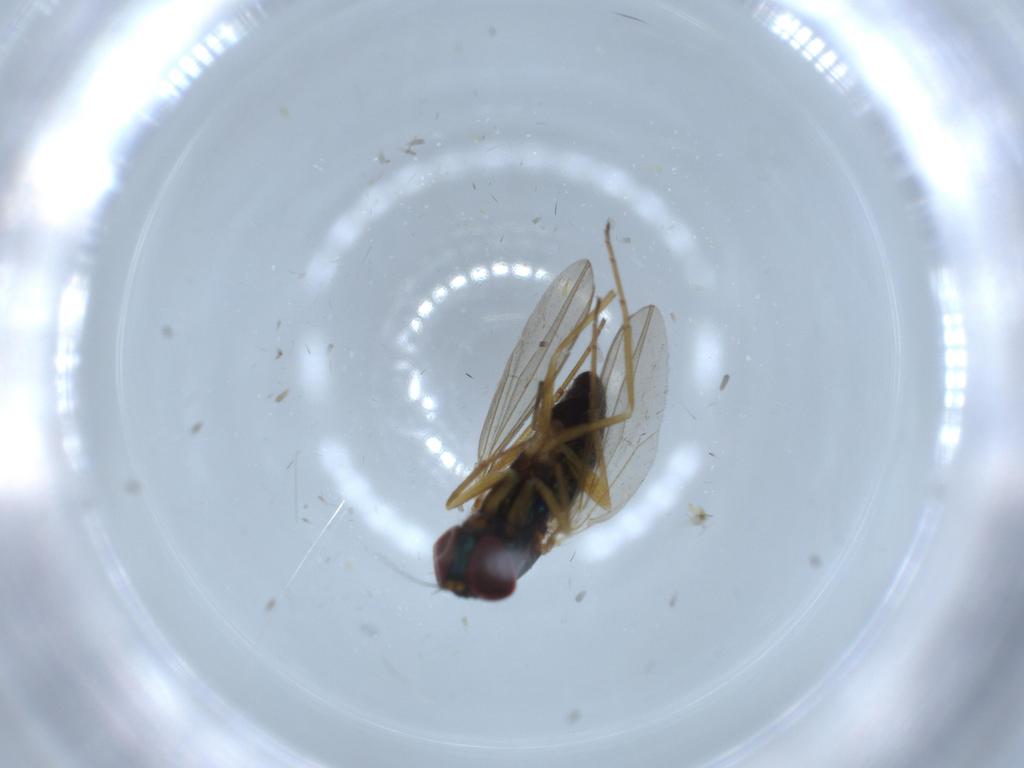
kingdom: Animalia
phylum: Arthropoda
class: Insecta
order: Diptera
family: Dolichopodidae
